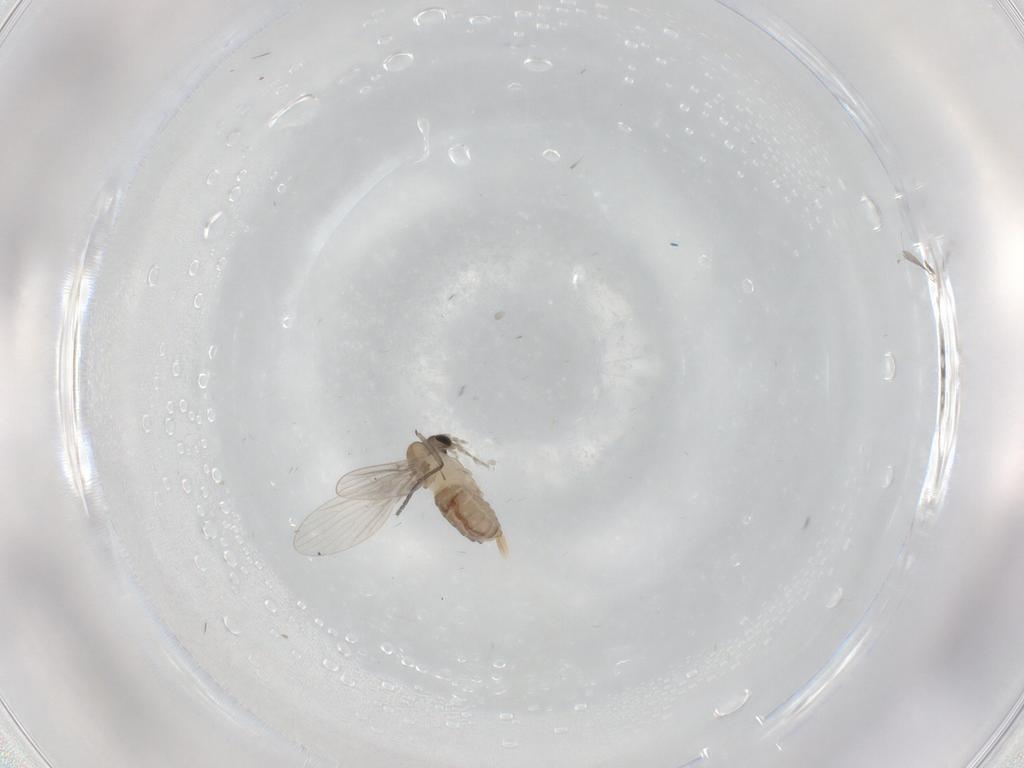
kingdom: Animalia
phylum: Arthropoda
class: Insecta
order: Diptera
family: Psychodidae
